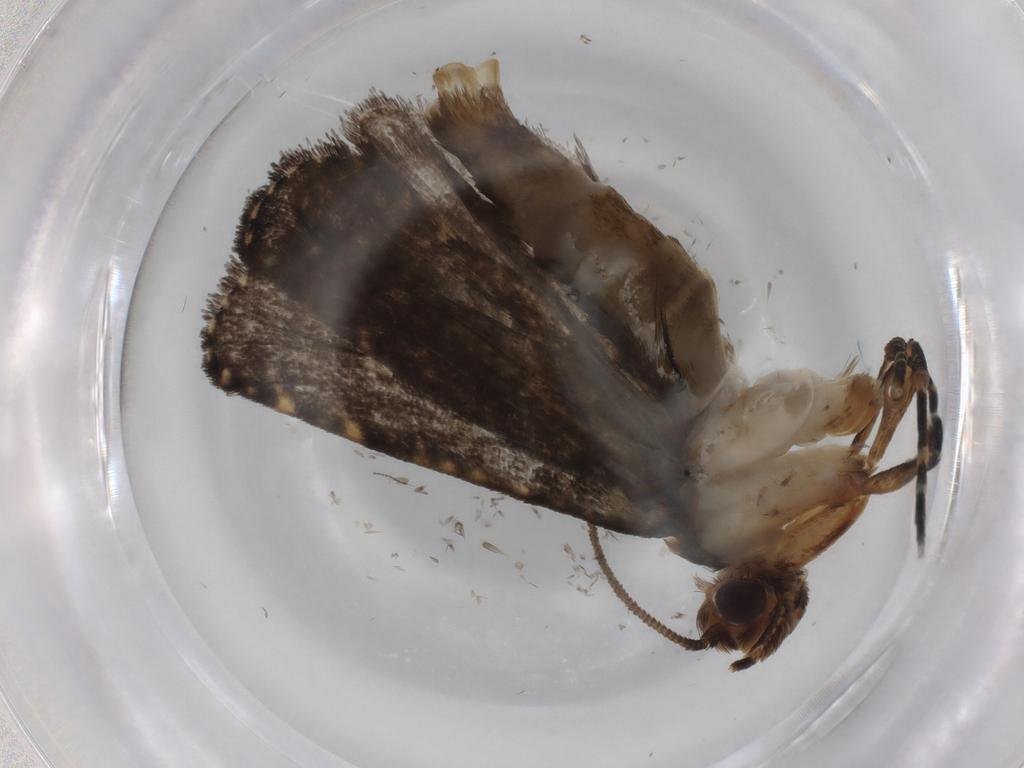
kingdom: Animalia
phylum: Arthropoda
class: Insecta
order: Lepidoptera
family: Tineidae
